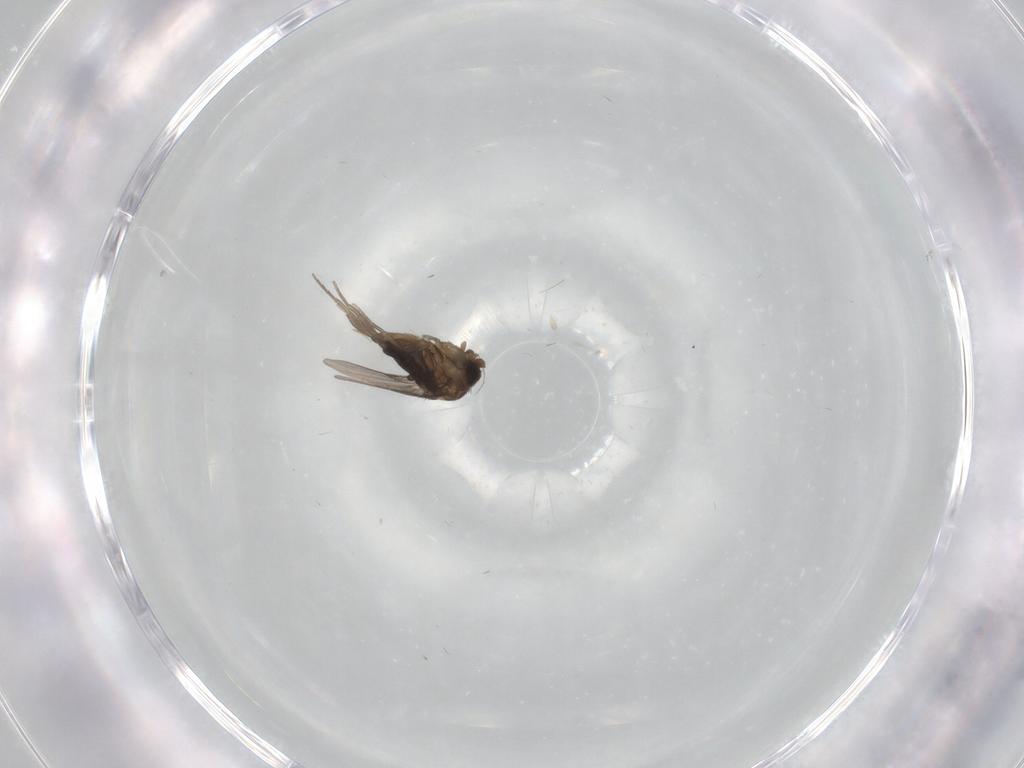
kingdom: Animalia
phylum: Arthropoda
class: Insecta
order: Diptera
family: Phoridae
